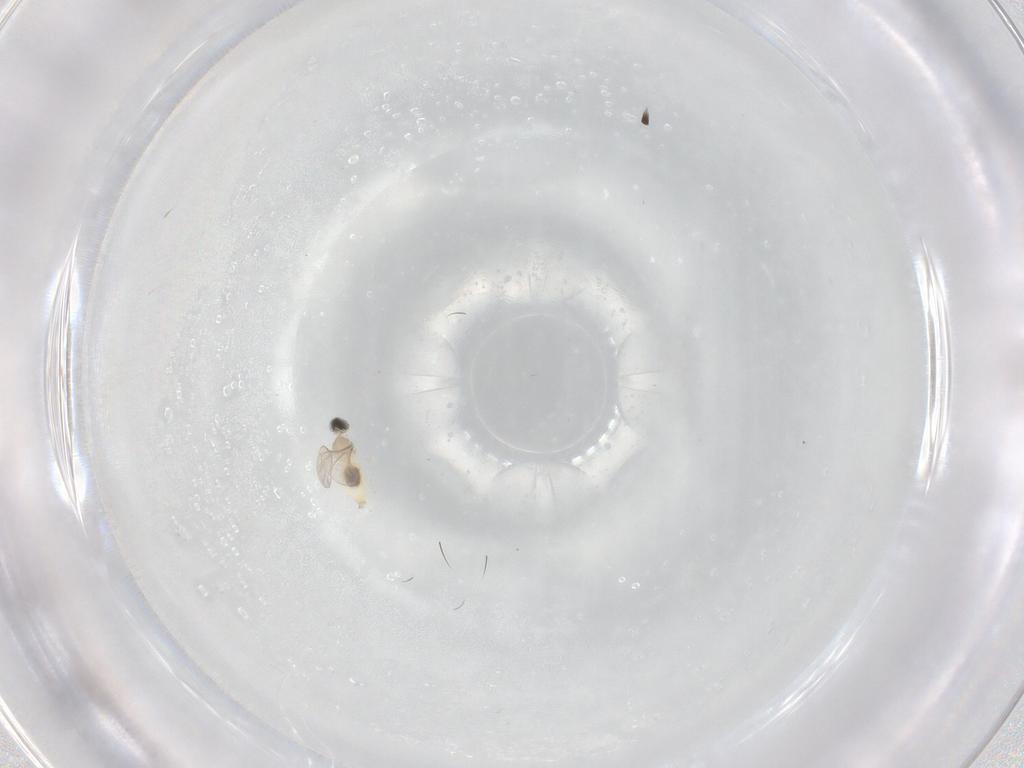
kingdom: Animalia
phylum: Arthropoda
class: Insecta
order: Diptera
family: Cecidomyiidae
